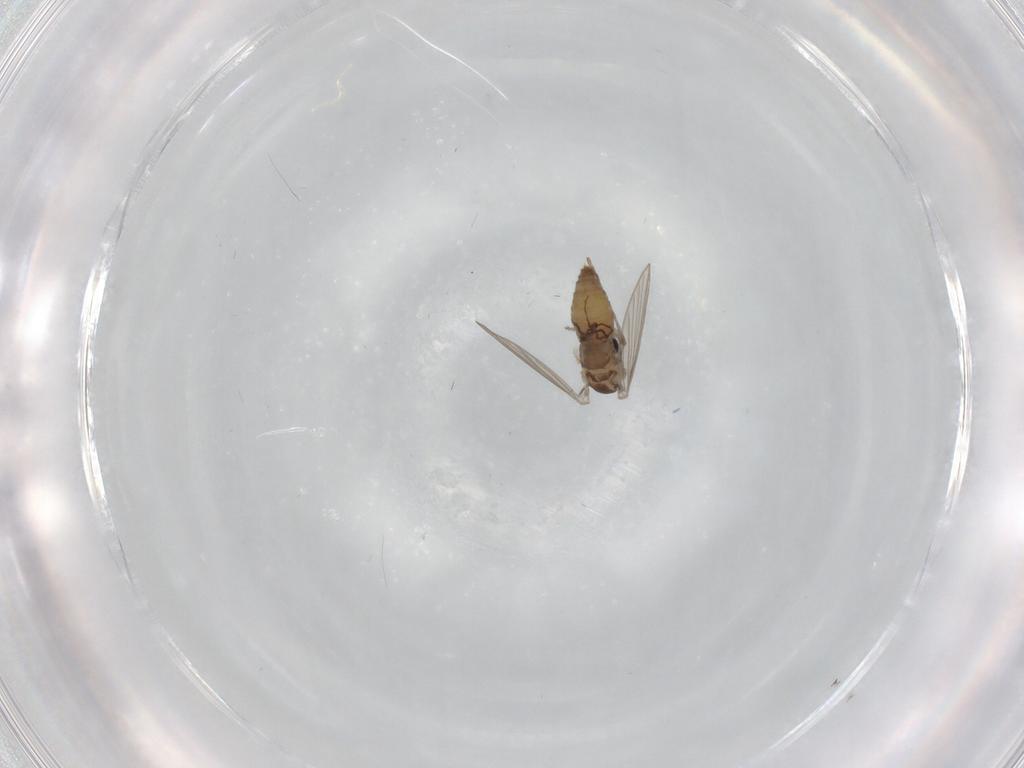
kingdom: Animalia
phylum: Arthropoda
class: Insecta
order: Diptera
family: Psychodidae
